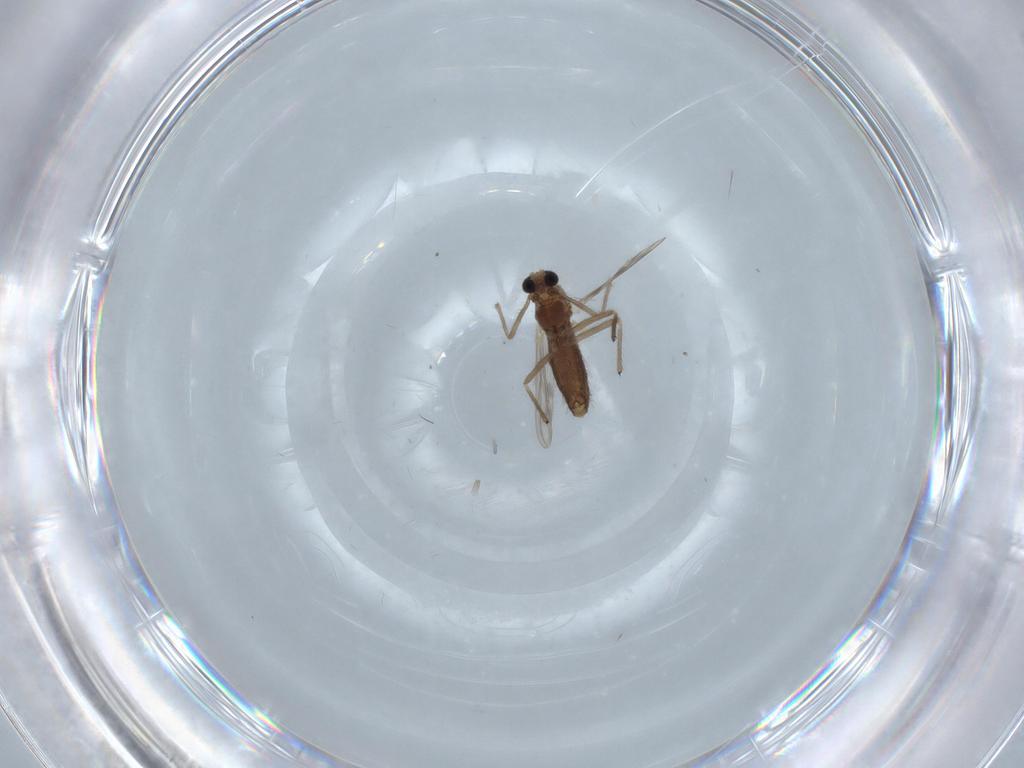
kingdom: Animalia
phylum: Arthropoda
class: Insecta
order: Diptera
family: Chironomidae
